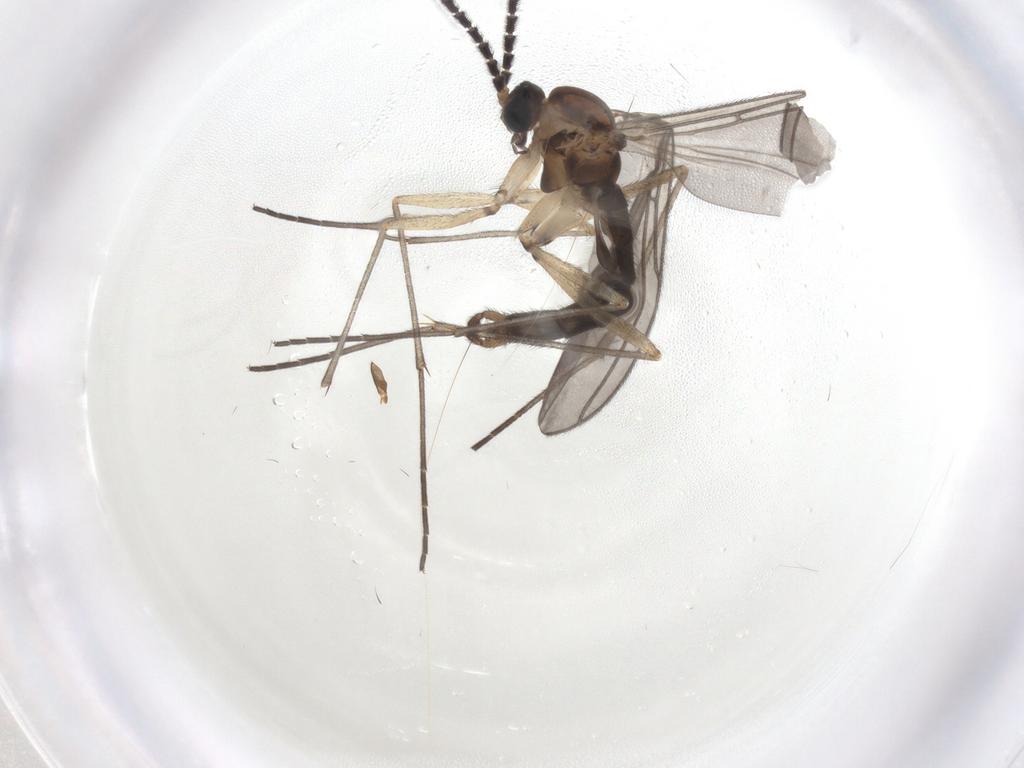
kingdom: Animalia
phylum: Arthropoda
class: Insecta
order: Diptera
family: Sciaridae
